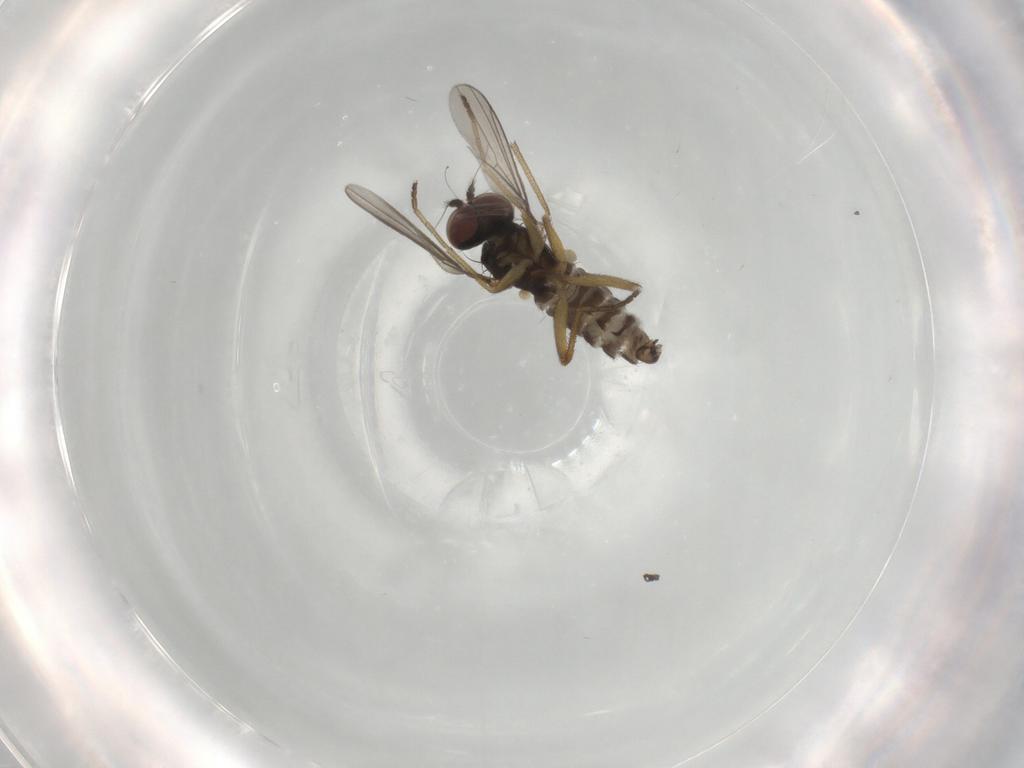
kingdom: Animalia
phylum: Arthropoda
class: Insecta
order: Diptera
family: Dolichopodidae
